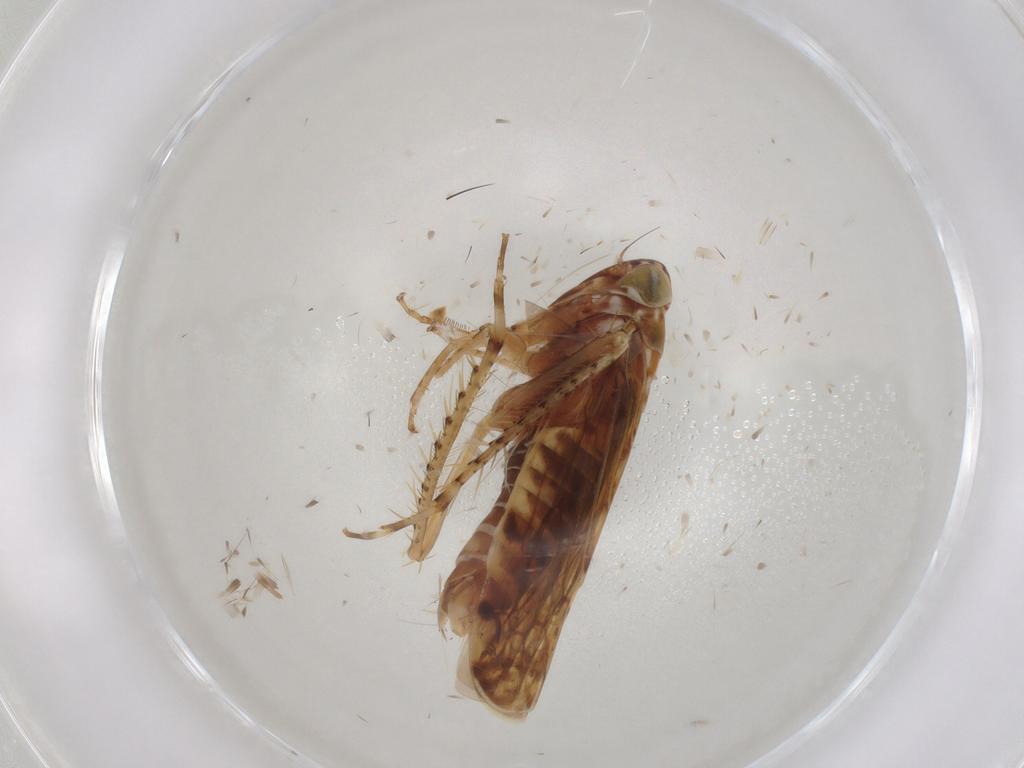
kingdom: Animalia
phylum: Arthropoda
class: Insecta
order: Hemiptera
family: Cicadellidae
